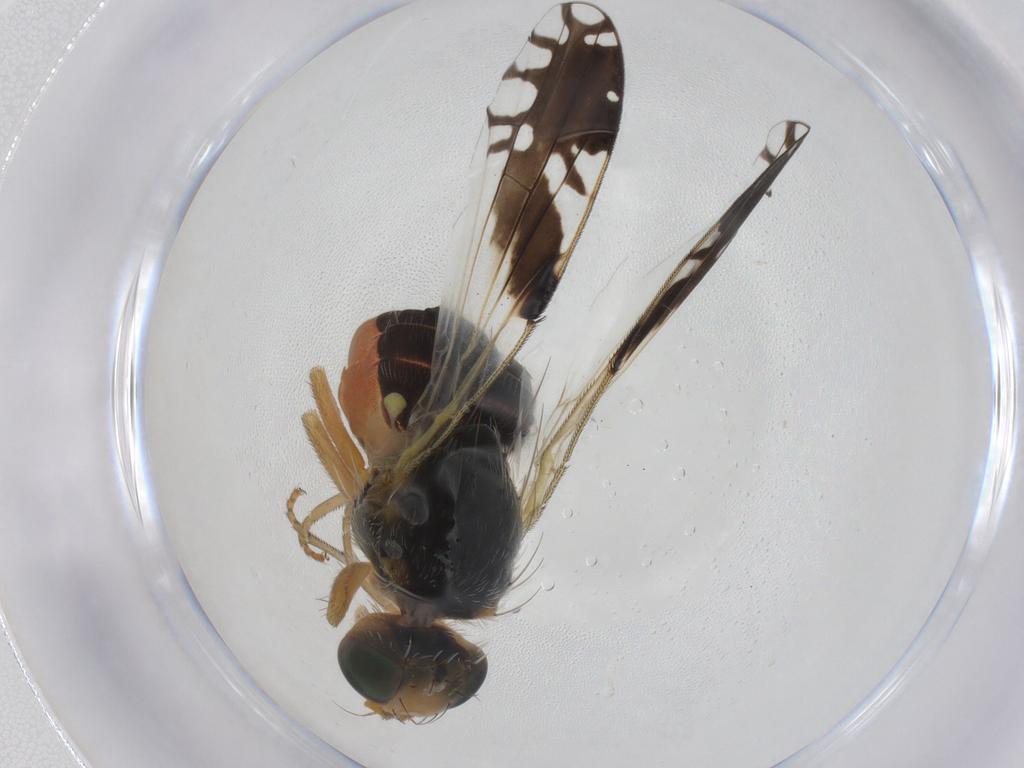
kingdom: Animalia
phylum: Arthropoda
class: Insecta
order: Diptera
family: Tephritidae
